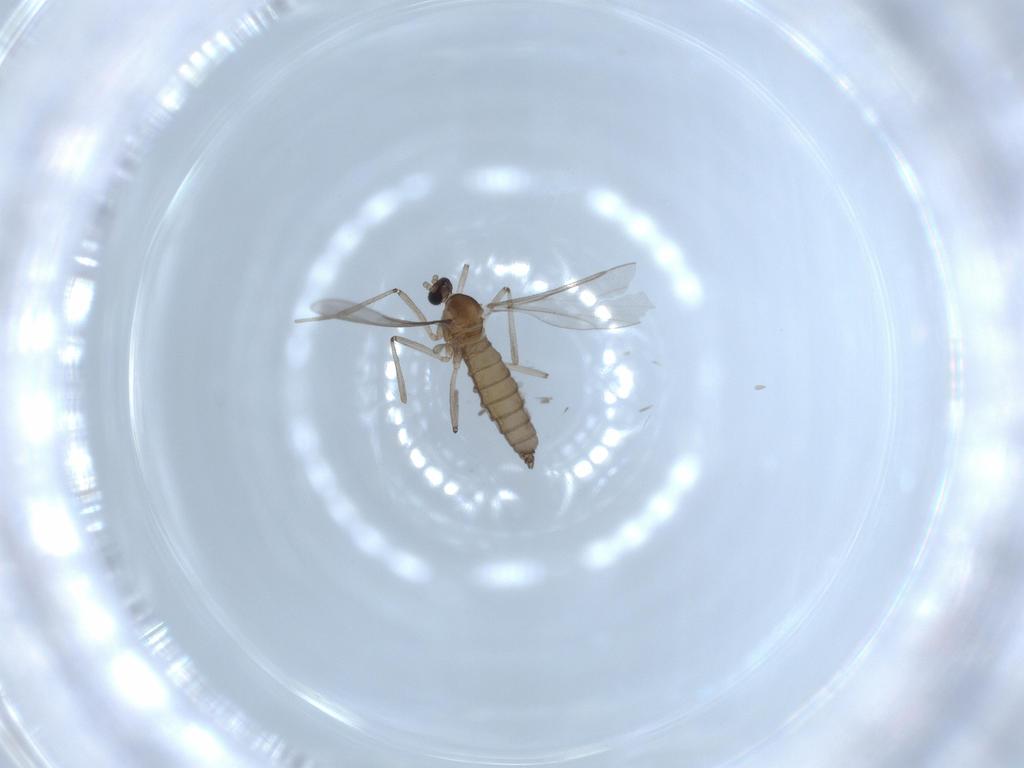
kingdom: Animalia
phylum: Arthropoda
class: Insecta
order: Diptera
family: Cecidomyiidae
